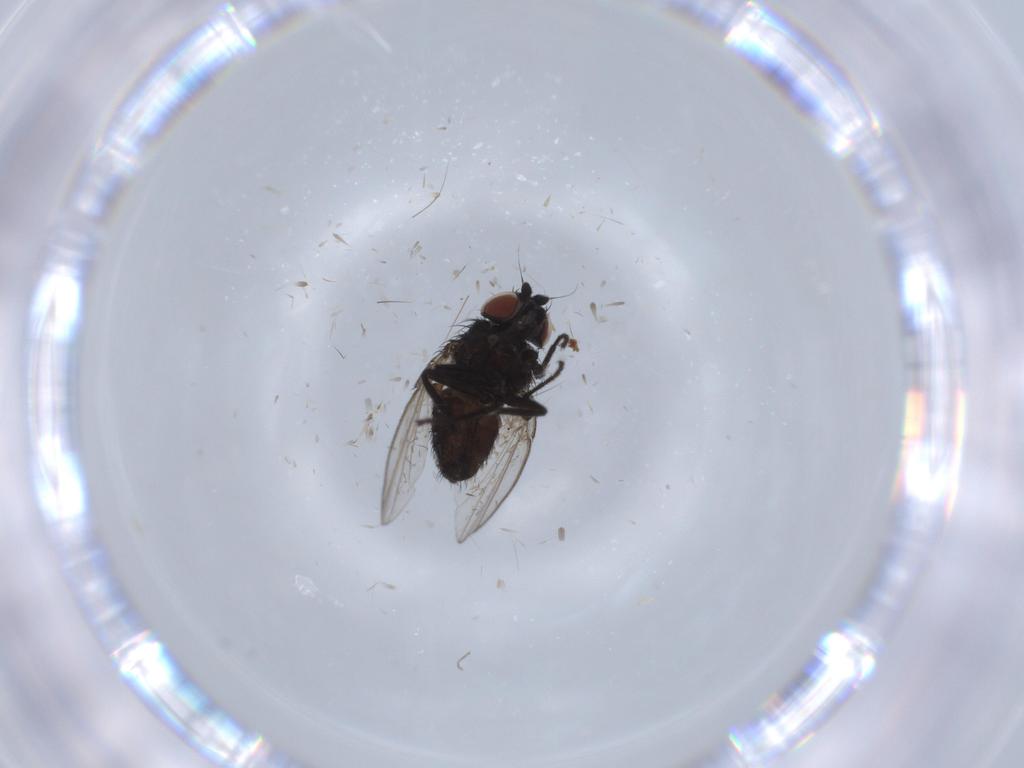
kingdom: Animalia
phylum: Arthropoda
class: Insecta
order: Diptera
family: Milichiidae
